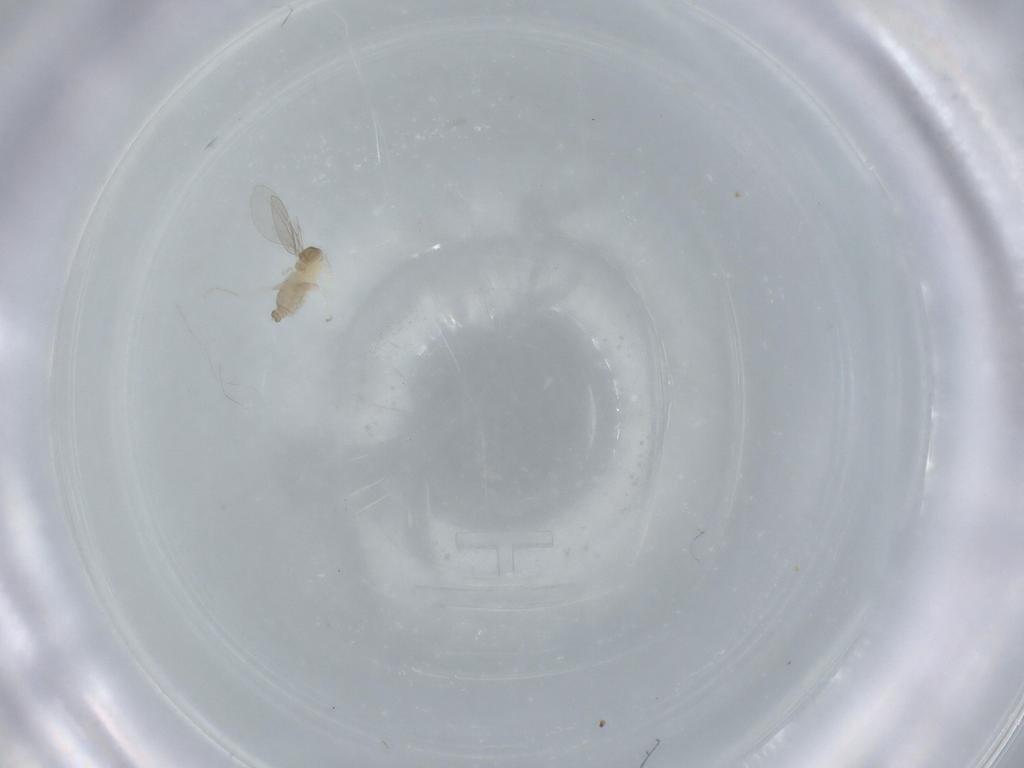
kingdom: Animalia
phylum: Arthropoda
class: Insecta
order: Diptera
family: Cecidomyiidae
